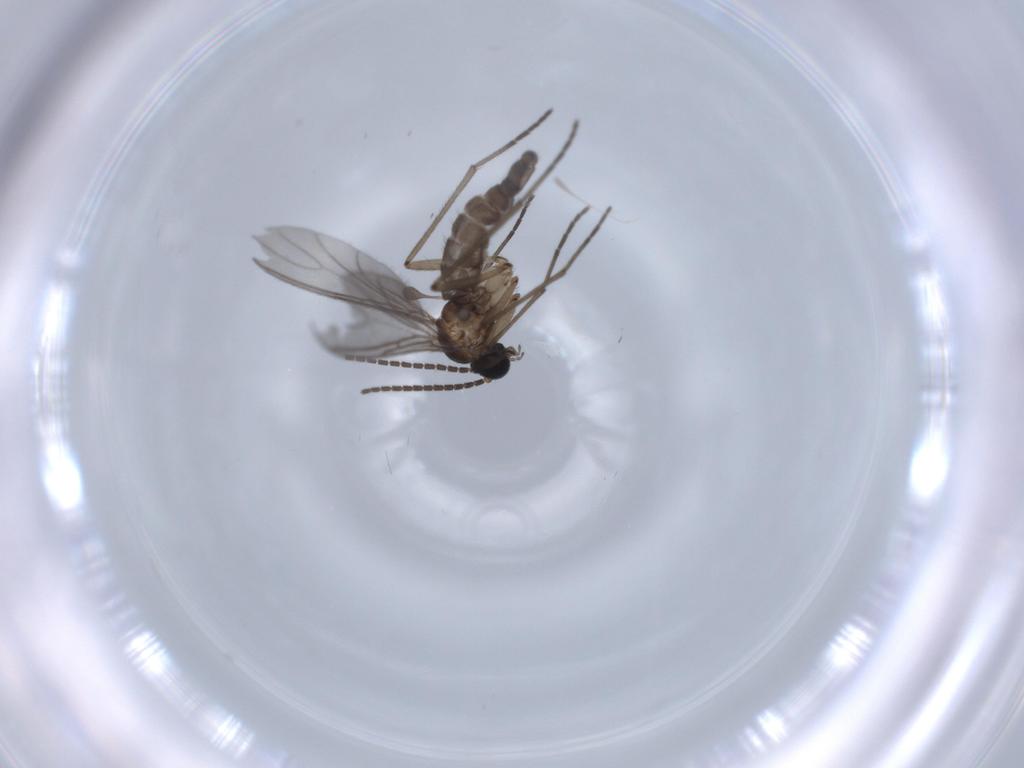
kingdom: Animalia
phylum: Arthropoda
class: Insecta
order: Diptera
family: Sciaridae
